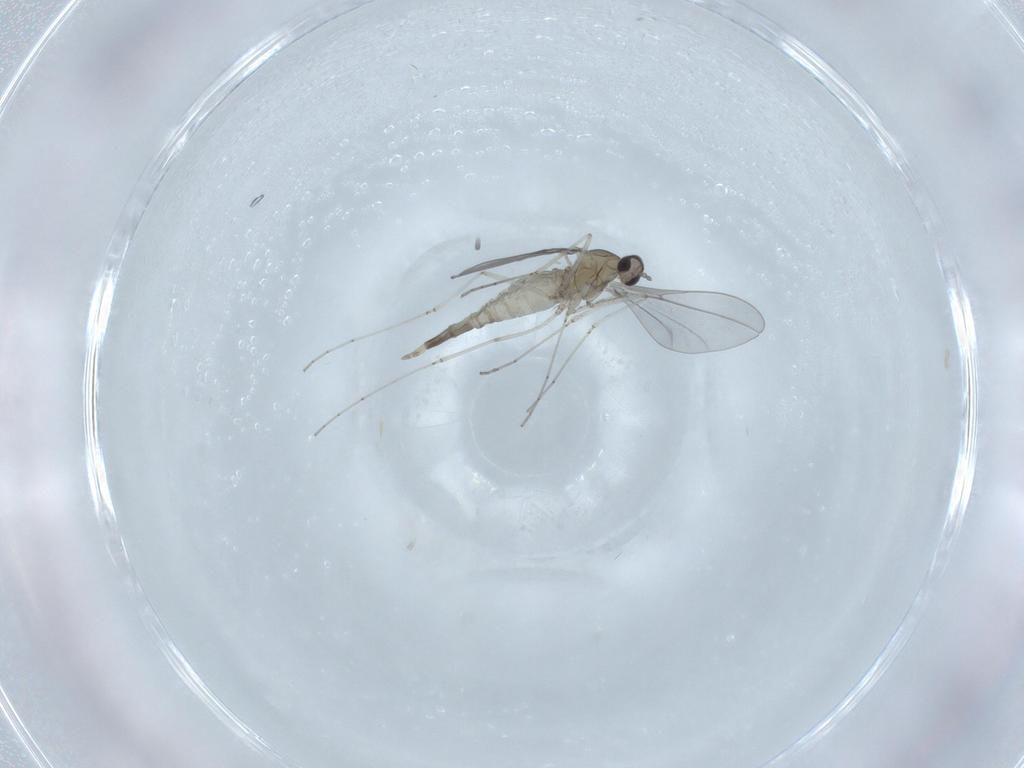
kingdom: Animalia
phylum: Arthropoda
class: Insecta
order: Diptera
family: Cecidomyiidae
